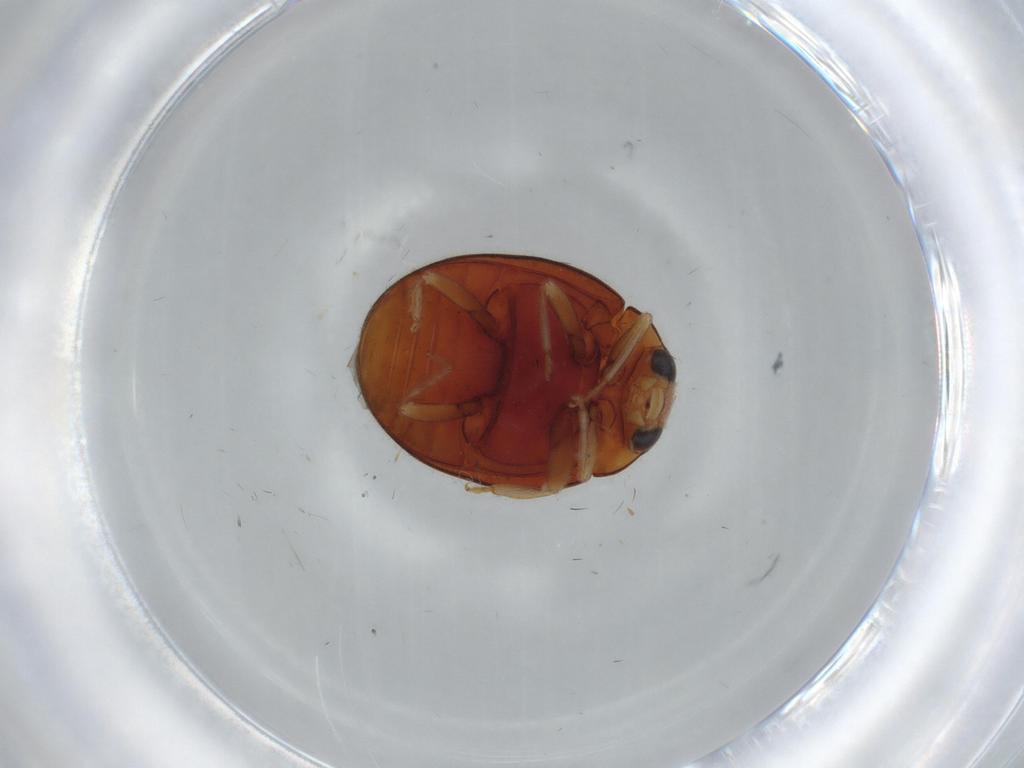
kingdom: Animalia
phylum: Arthropoda
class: Insecta
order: Coleoptera
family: Coccinellidae
